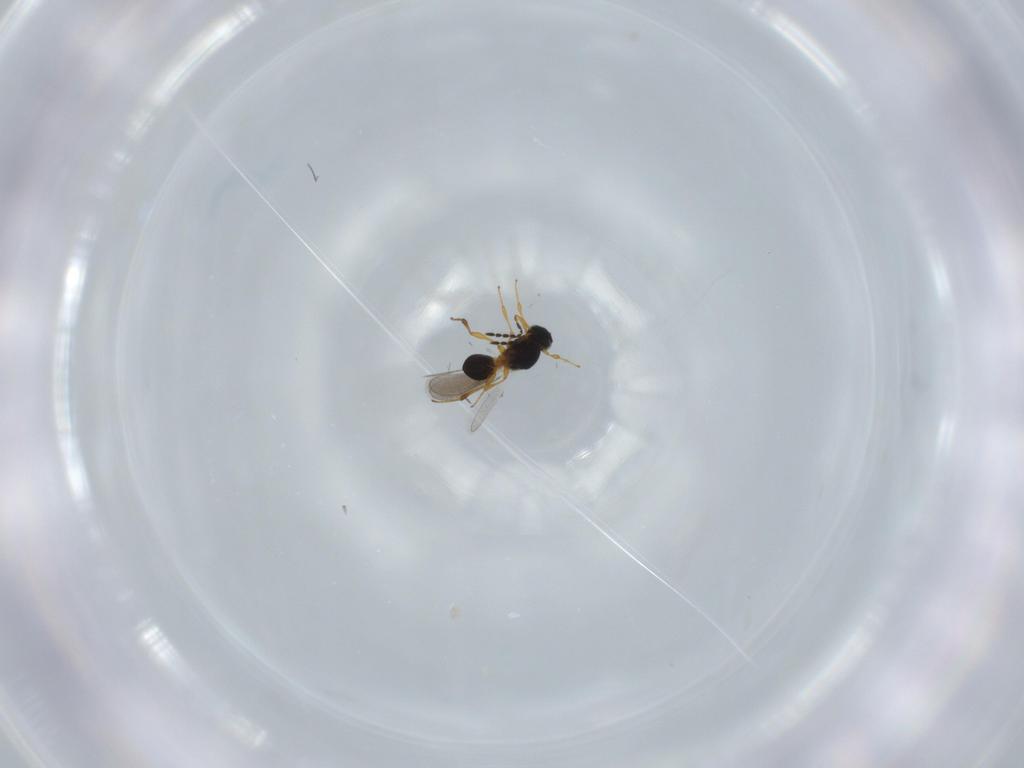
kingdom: Animalia
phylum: Arthropoda
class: Insecta
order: Hymenoptera
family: Platygastridae
